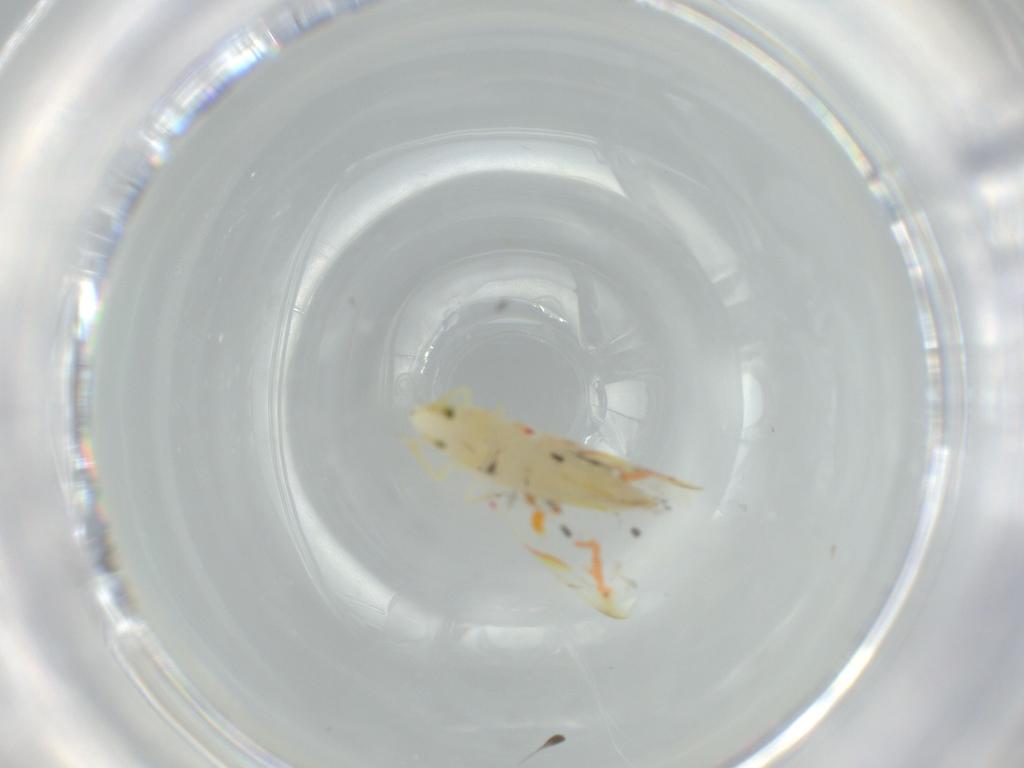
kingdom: Animalia
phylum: Arthropoda
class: Insecta
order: Hemiptera
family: Cicadellidae
